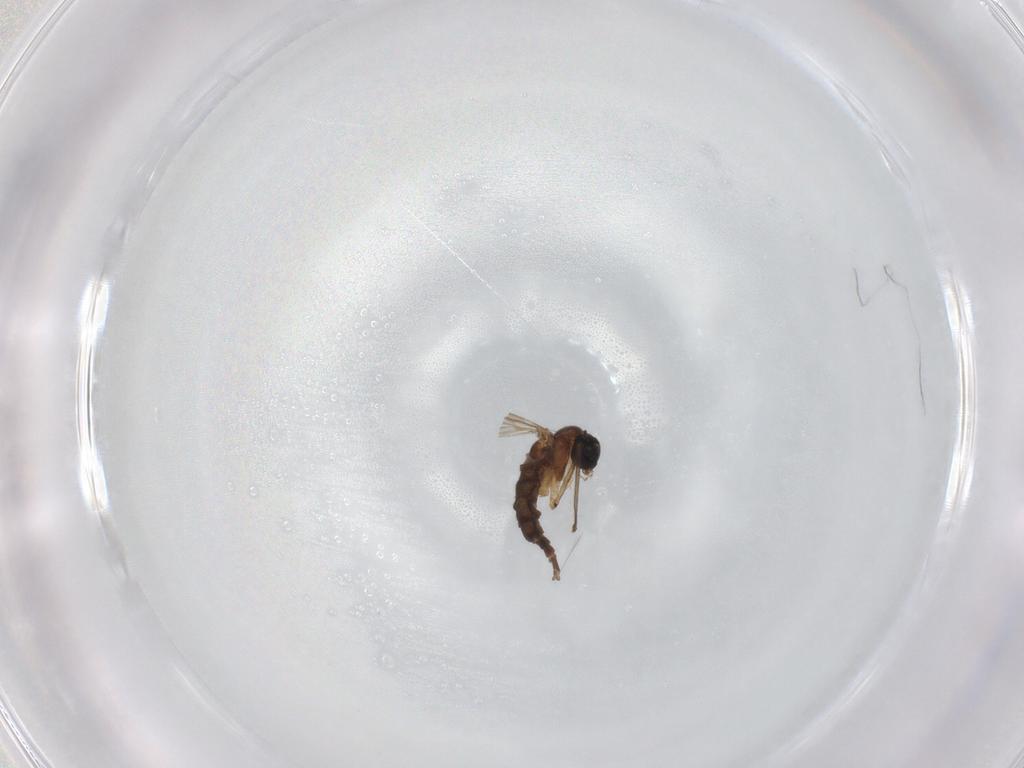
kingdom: Animalia
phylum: Arthropoda
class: Insecta
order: Diptera
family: Sciaridae
